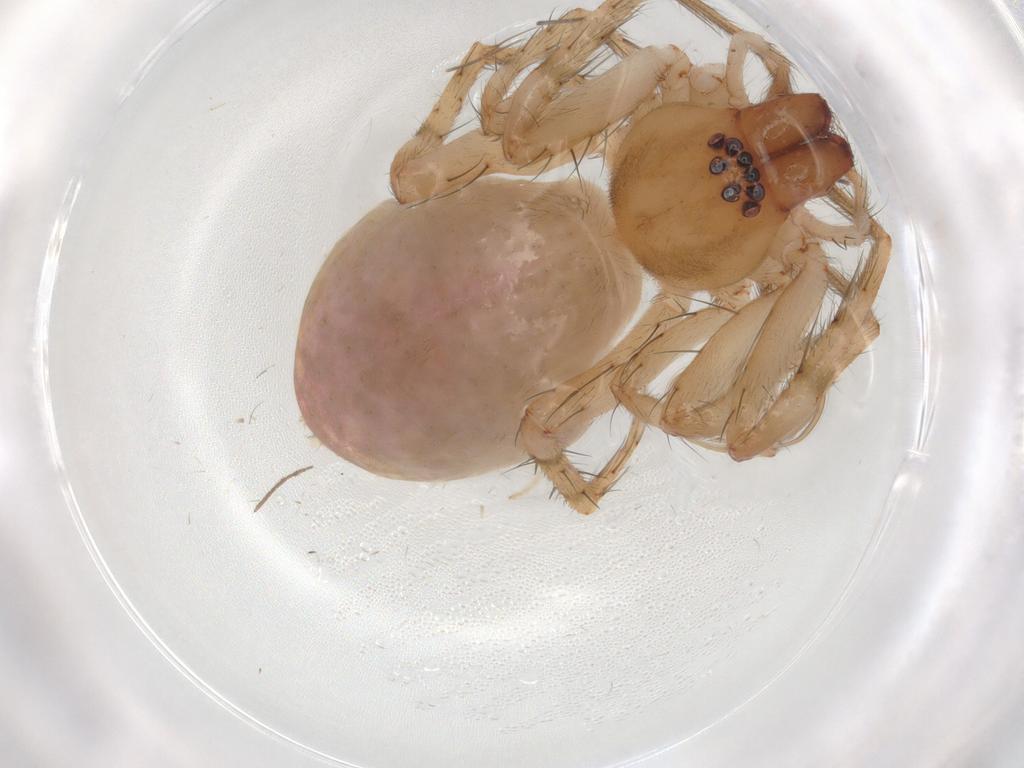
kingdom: Animalia
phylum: Arthropoda
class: Arachnida
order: Araneae
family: Anyphaenidae
